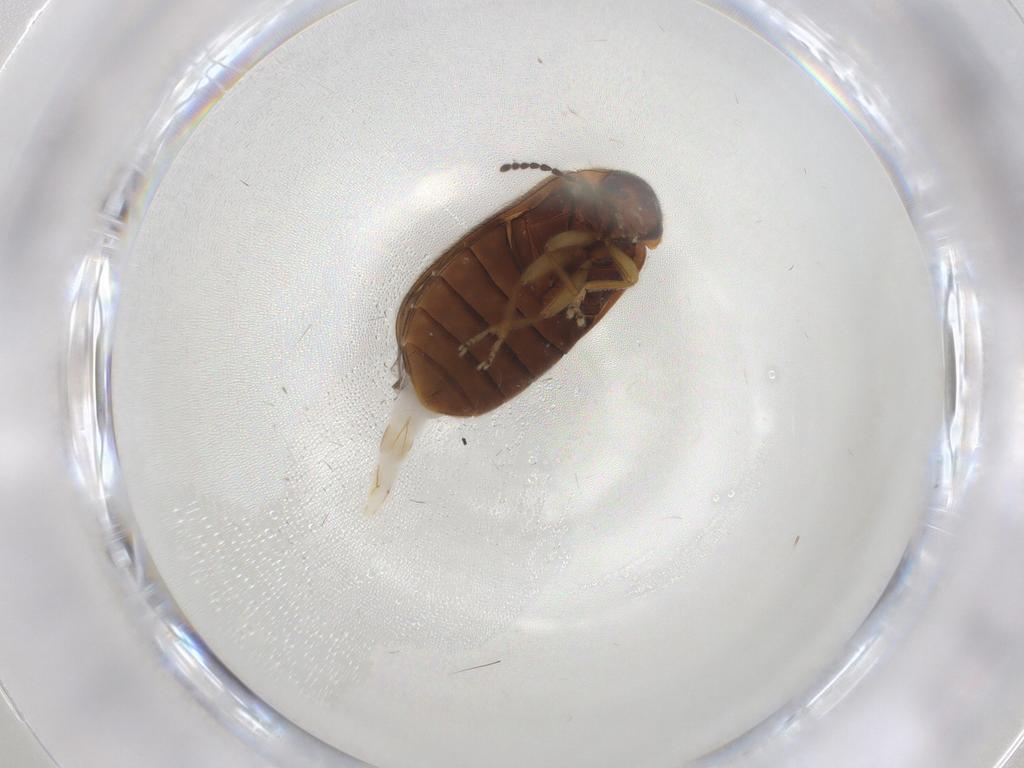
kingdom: Animalia
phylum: Arthropoda
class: Insecta
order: Coleoptera
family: Scirtidae
